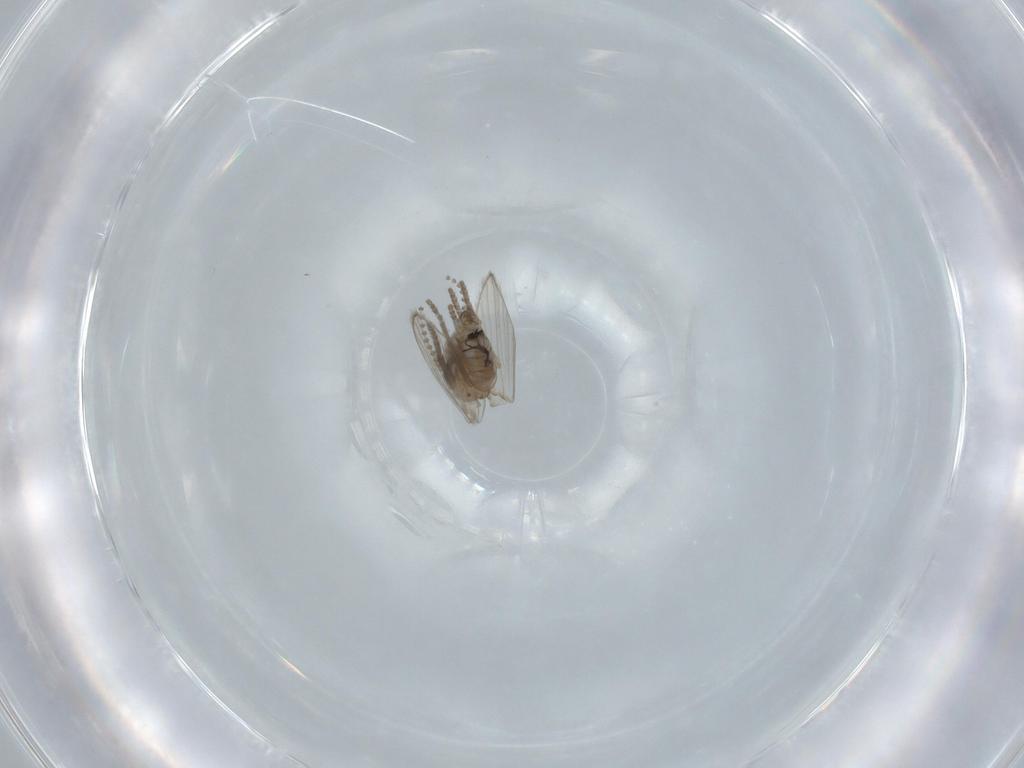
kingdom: Animalia
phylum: Arthropoda
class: Insecta
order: Diptera
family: Psychodidae
